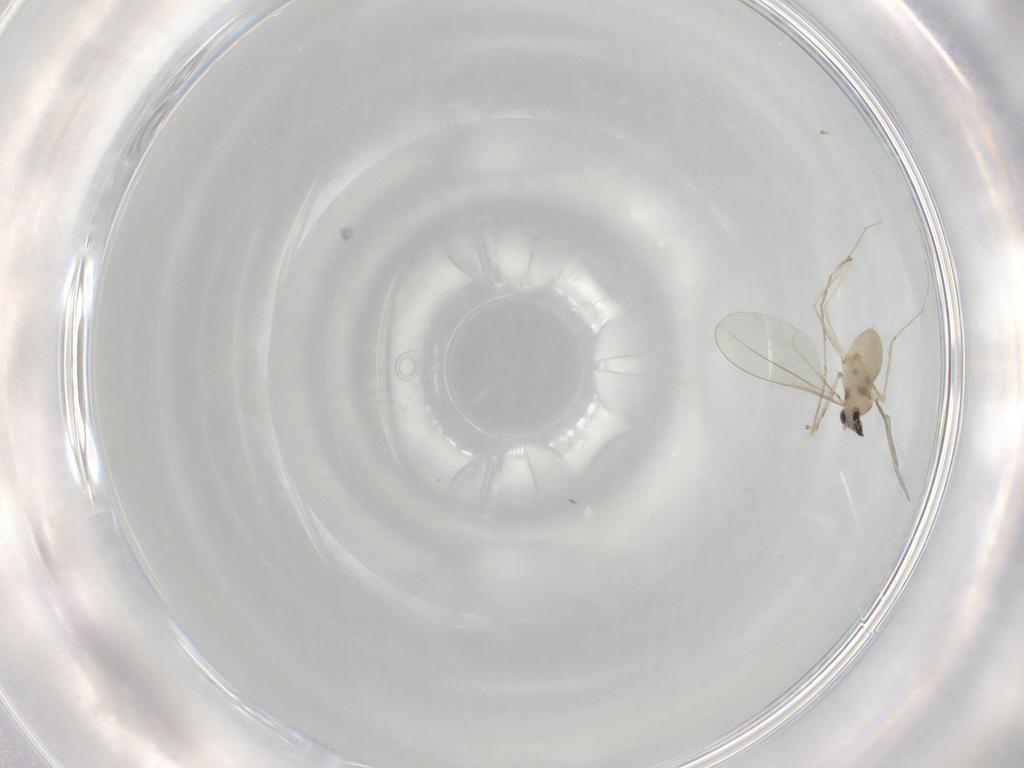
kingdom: Animalia
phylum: Arthropoda
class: Insecta
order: Diptera
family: Cecidomyiidae
